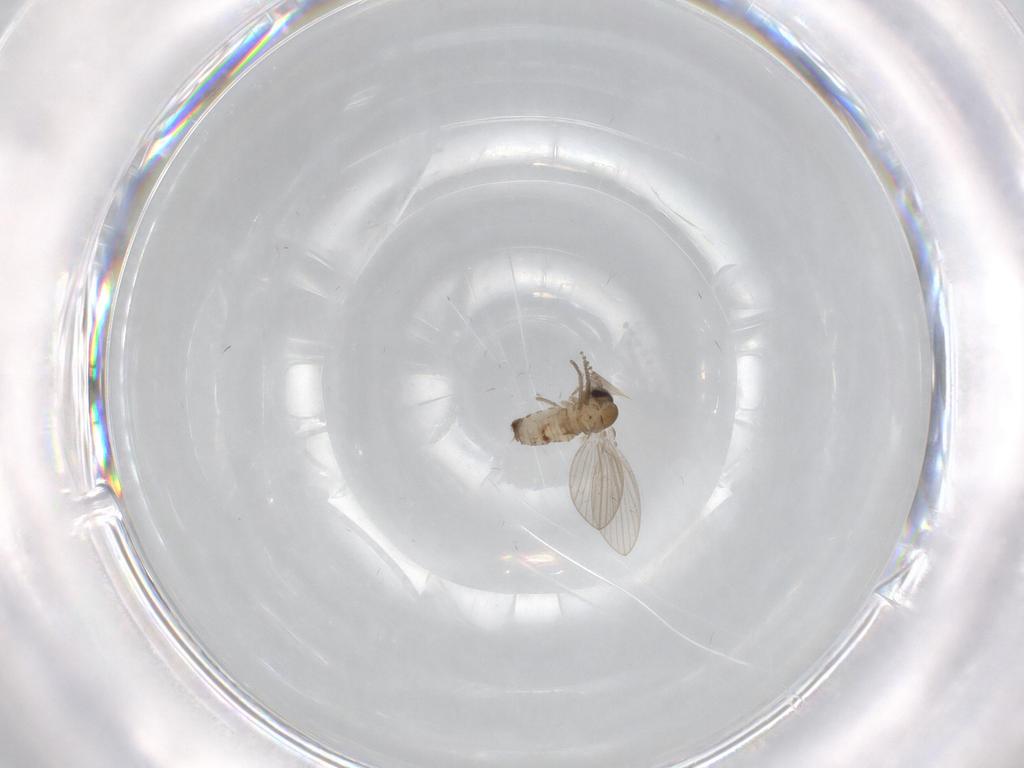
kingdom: Animalia
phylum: Arthropoda
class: Insecta
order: Diptera
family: Psychodidae
